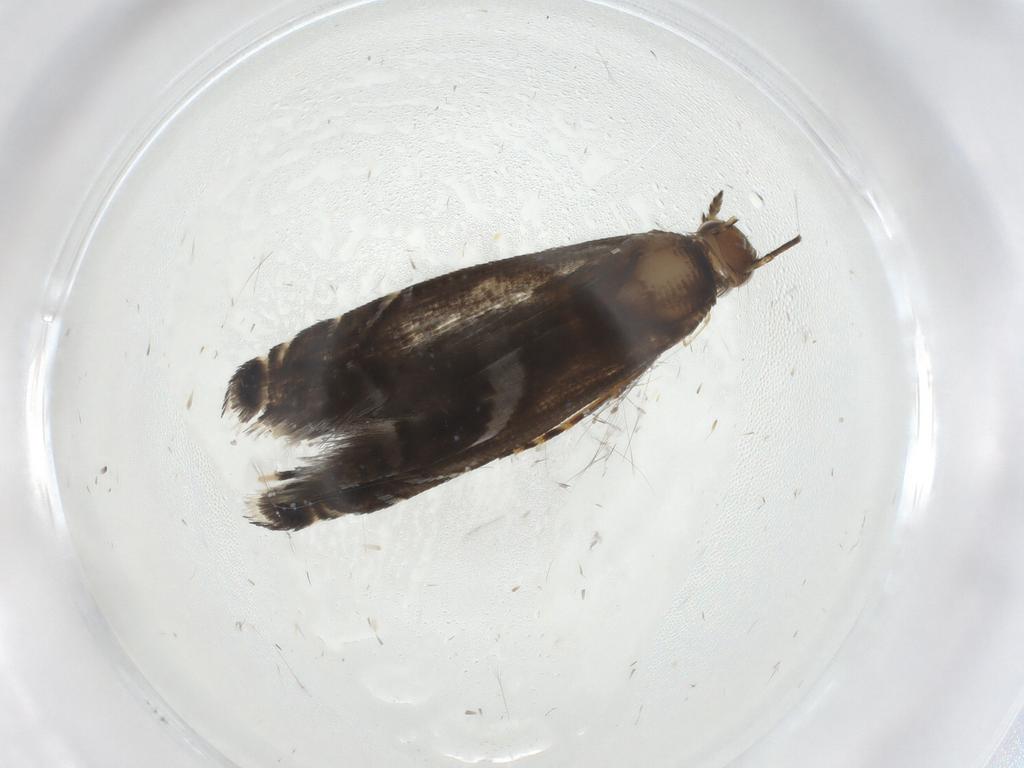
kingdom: Animalia
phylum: Arthropoda
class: Insecta
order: Lepidoptera
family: Glyphipterigidae
